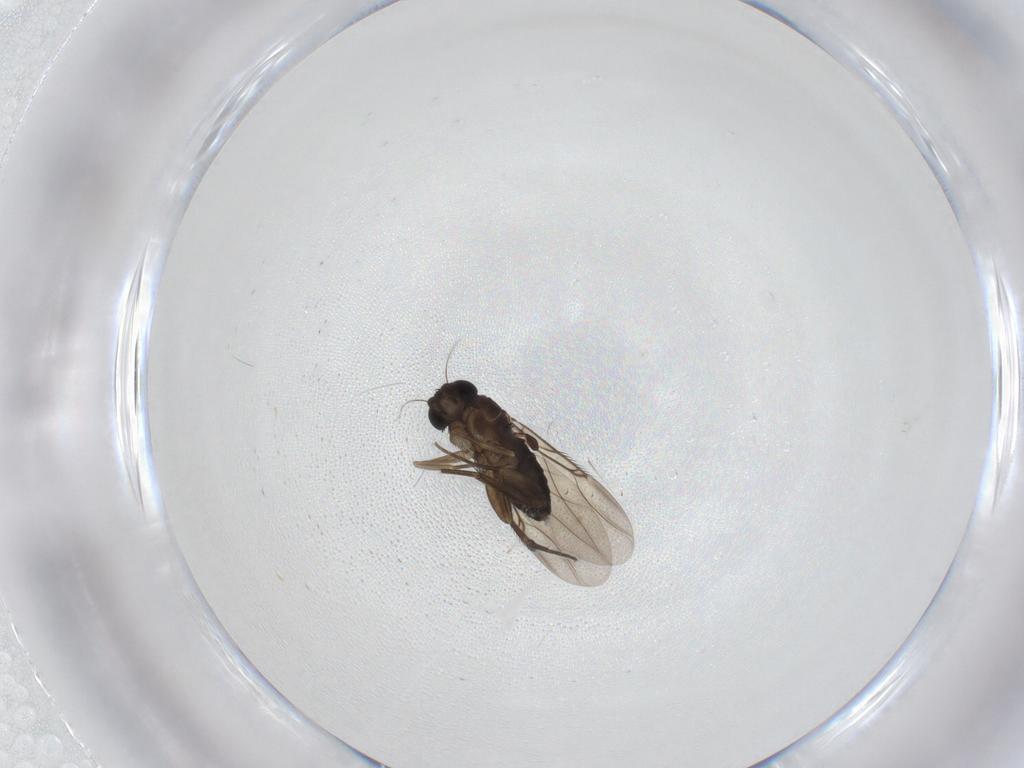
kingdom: Animalia
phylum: Arthropoda
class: Insecta
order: Diptera
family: Phoridae
